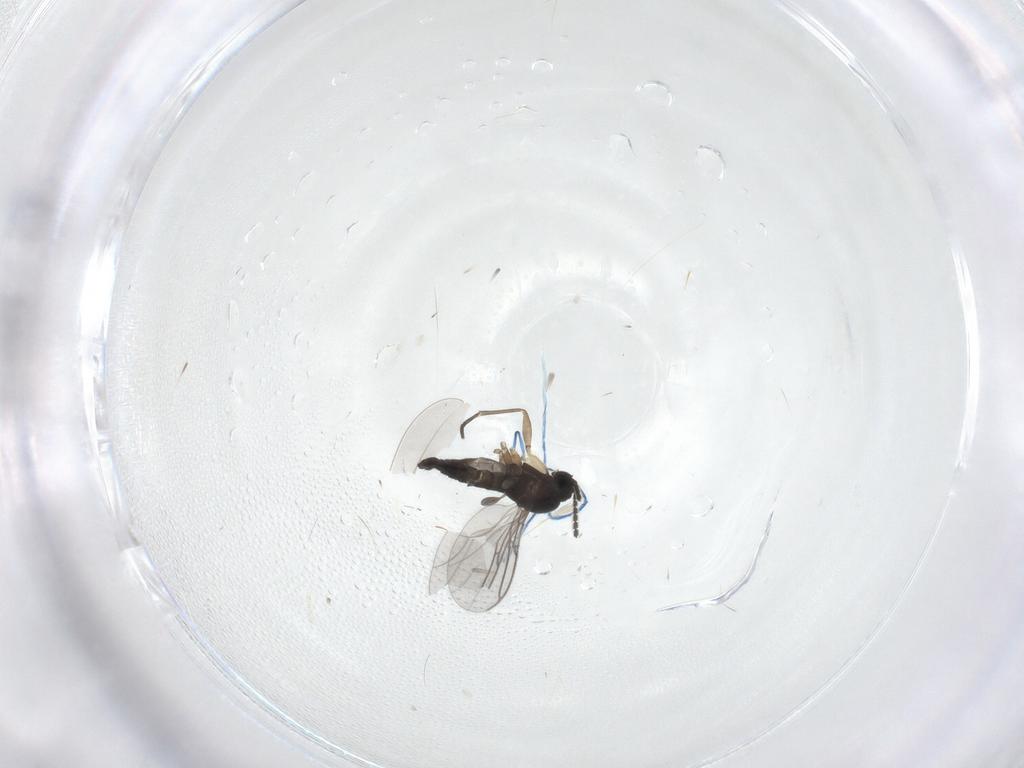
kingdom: Animalia
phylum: Arthropoda
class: Insecta
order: Diptera
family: Sciaridae
